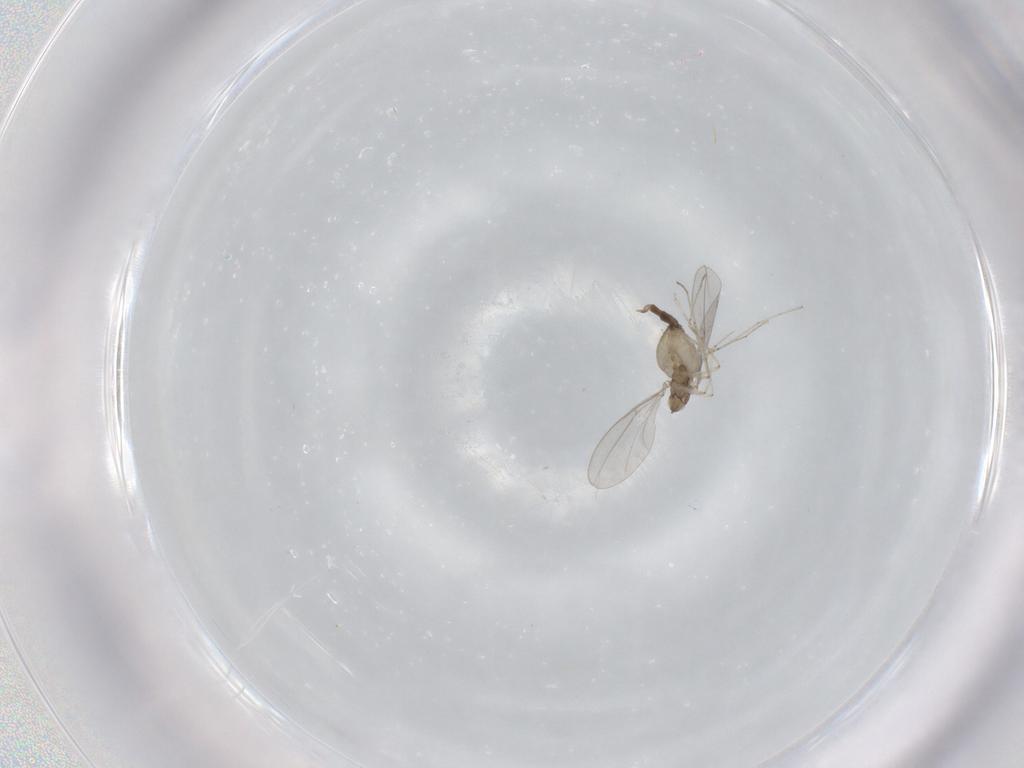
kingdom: Animalia
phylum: Arthropoda
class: Insecta
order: Diptera
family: Cecidomyiidae
